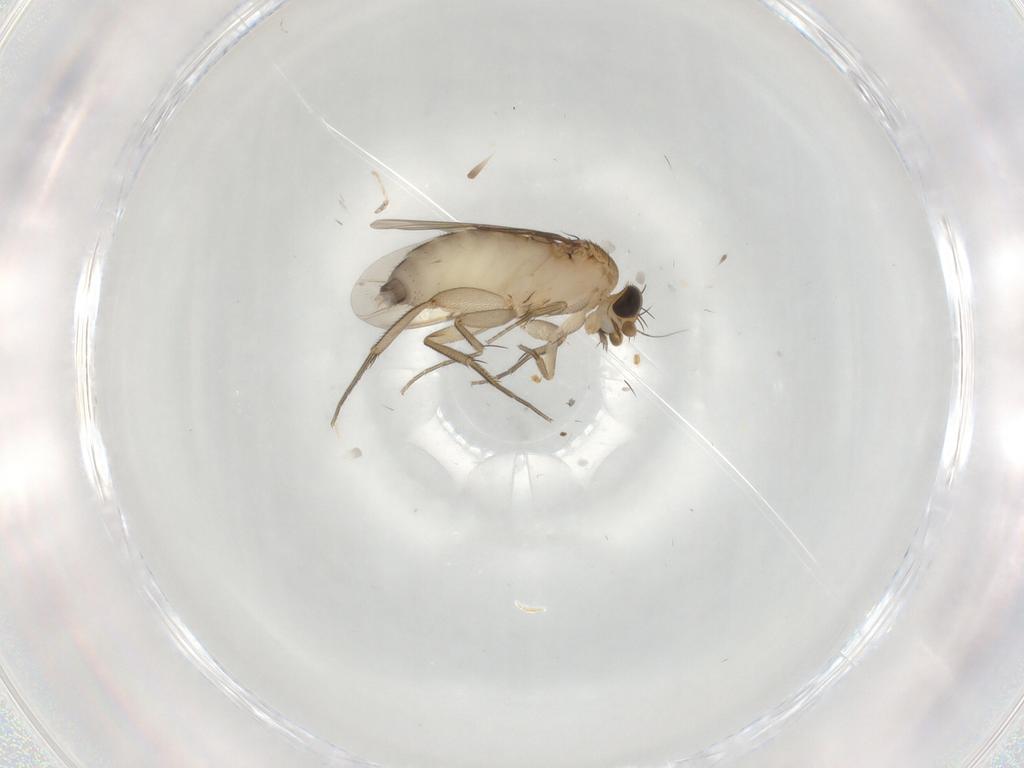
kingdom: Animalia
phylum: Arthropoda
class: Insecta
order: Diptera
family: Phoridae
